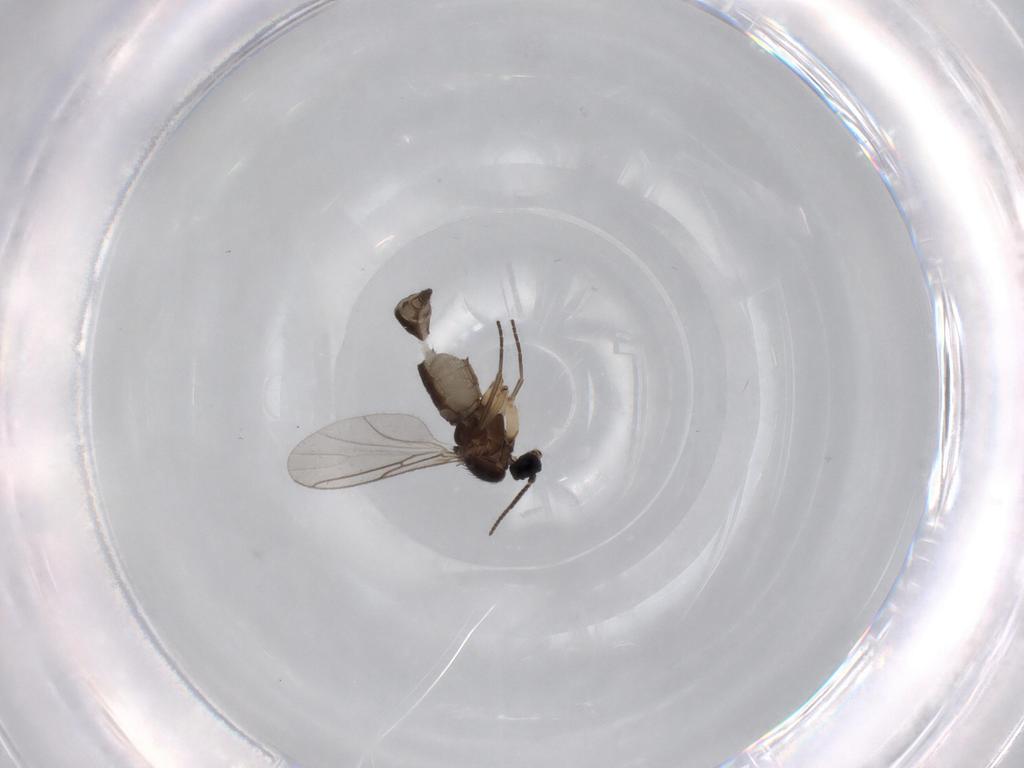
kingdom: Animalia
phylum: Arthropoda
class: Insecta
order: Diptera
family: Sciaridae
